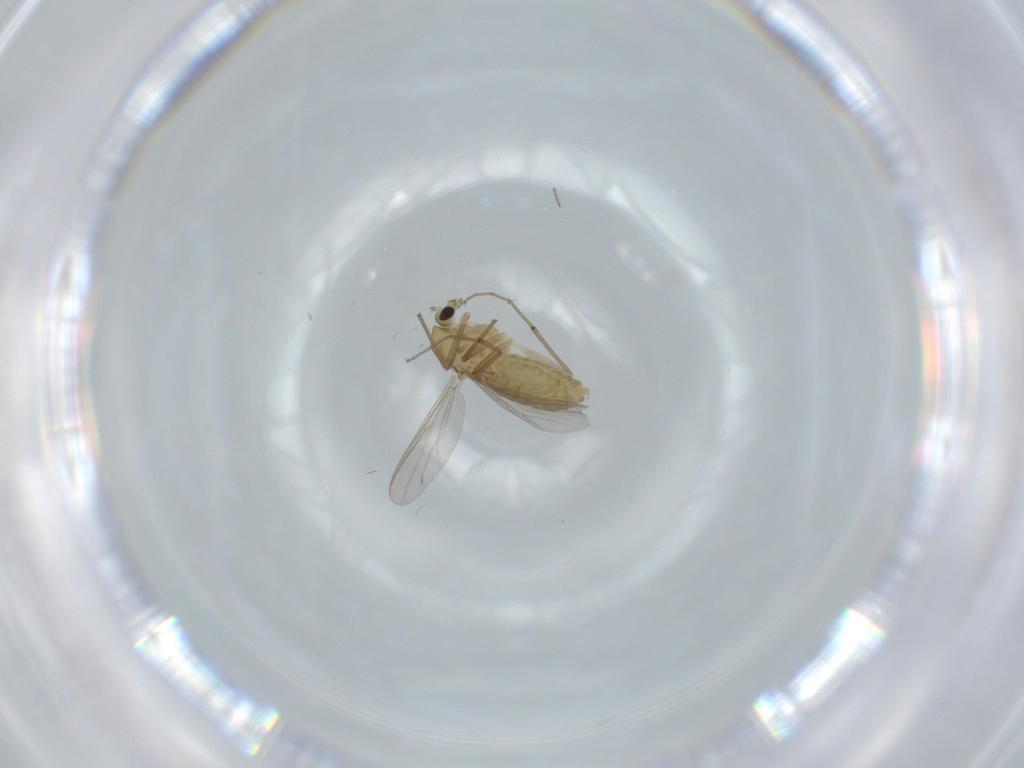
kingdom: Animalia
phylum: Arthropoda
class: Insecta
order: Diptera
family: Chironomidae
